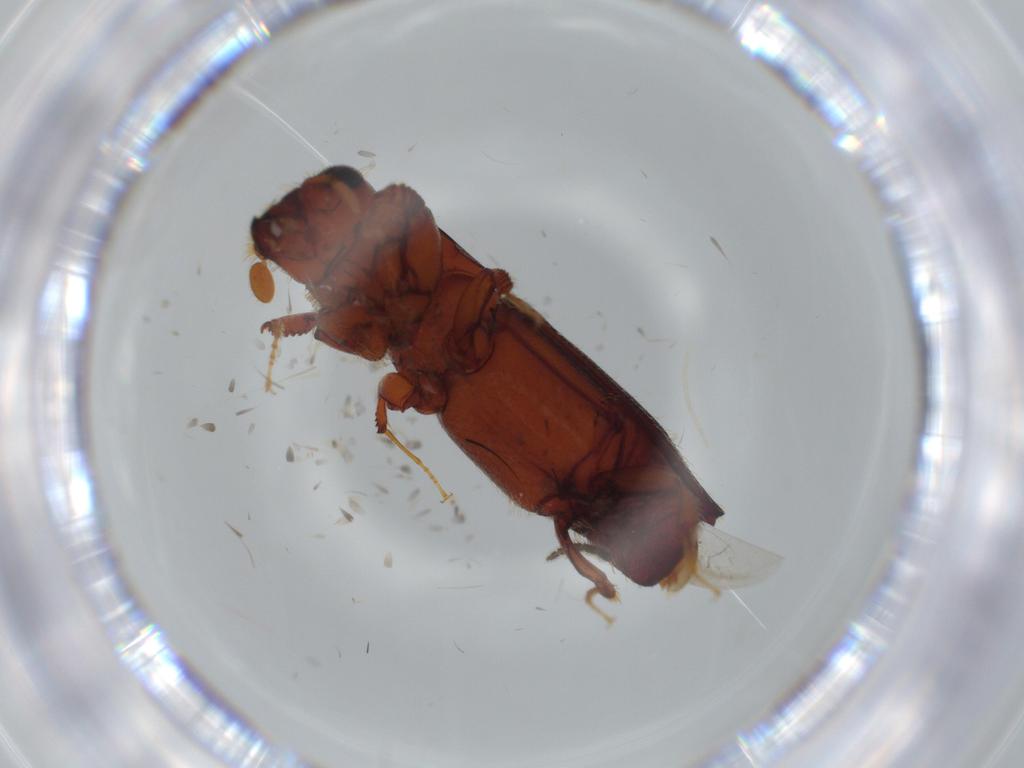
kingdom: Animalia
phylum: Arthropoda
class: Insecta
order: Coleoptera
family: Curculionidae
